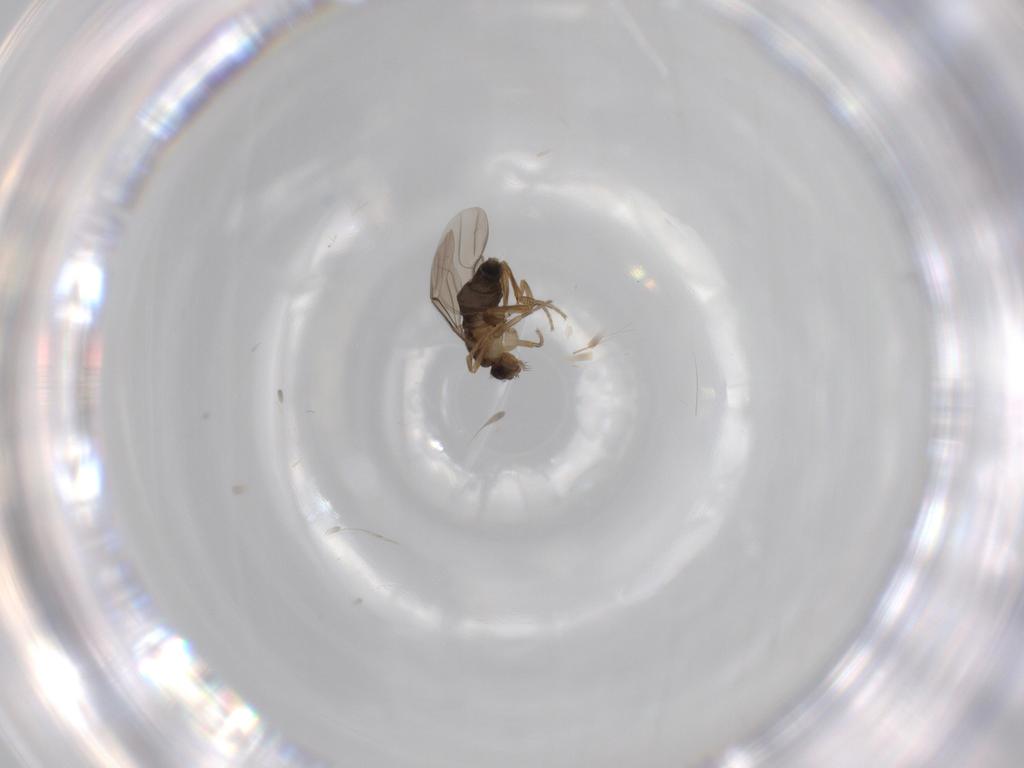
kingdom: Animalia
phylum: Arthropoda
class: Insecta
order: Diptera
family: Phoridae
